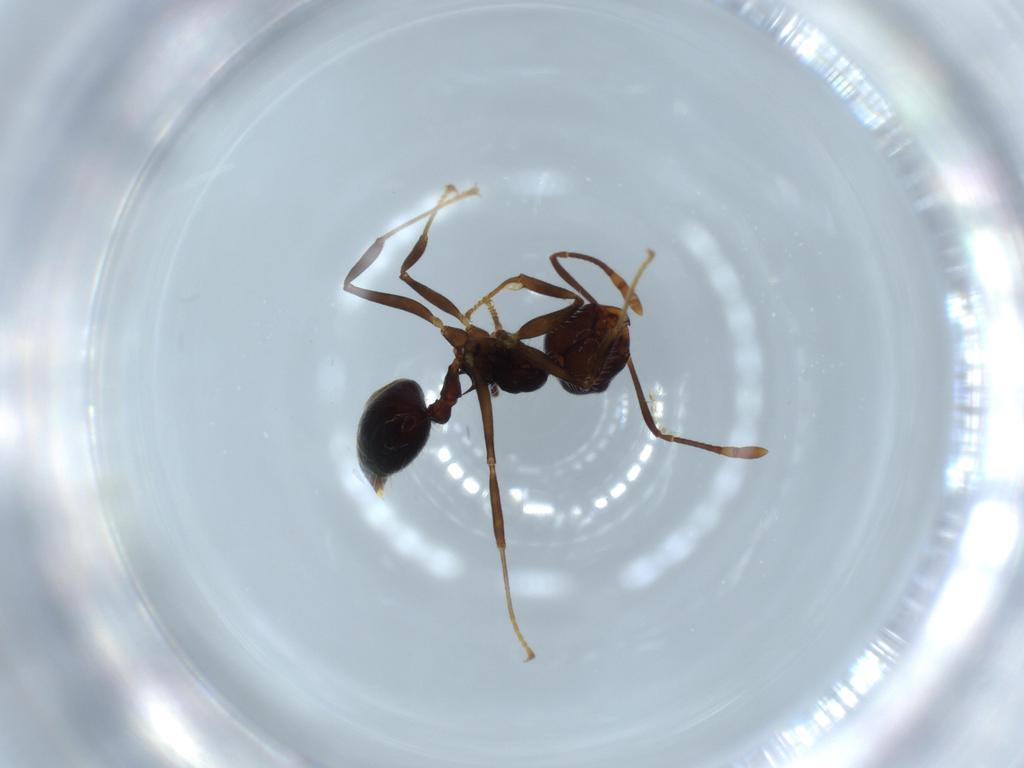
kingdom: Animalia
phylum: Arthropoda
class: Insecta
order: Hymenoptera
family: Formicidae
